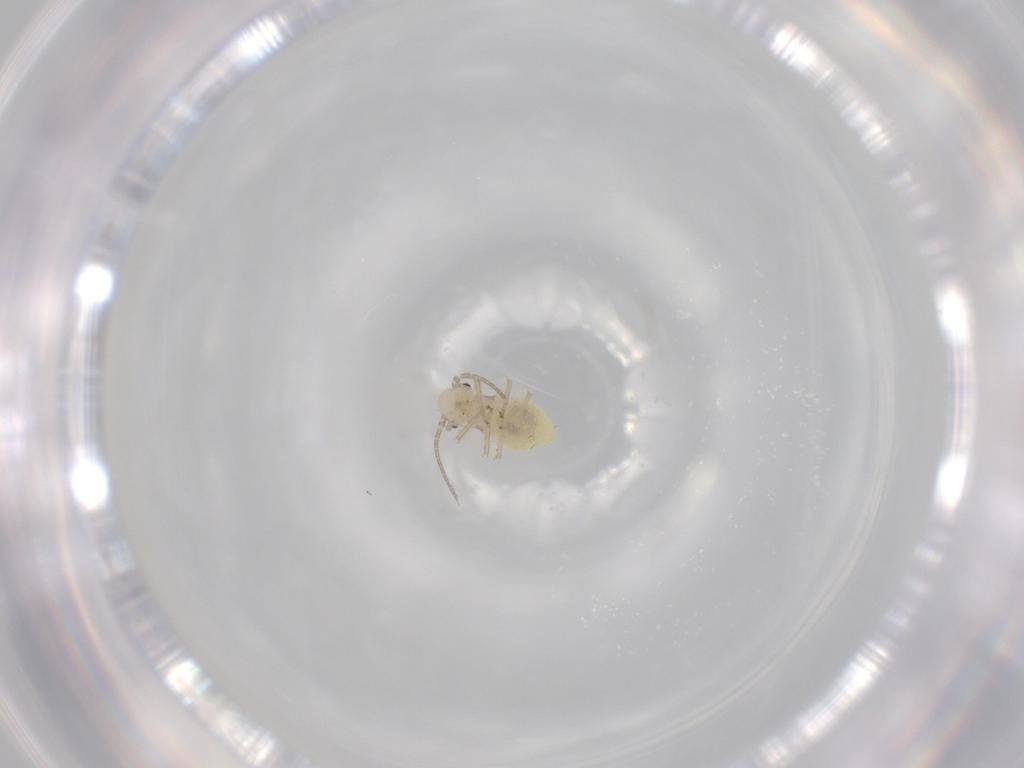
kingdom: Animalia
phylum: Arthropoda
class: Insecta
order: Psocodea
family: Caeciliusidae
